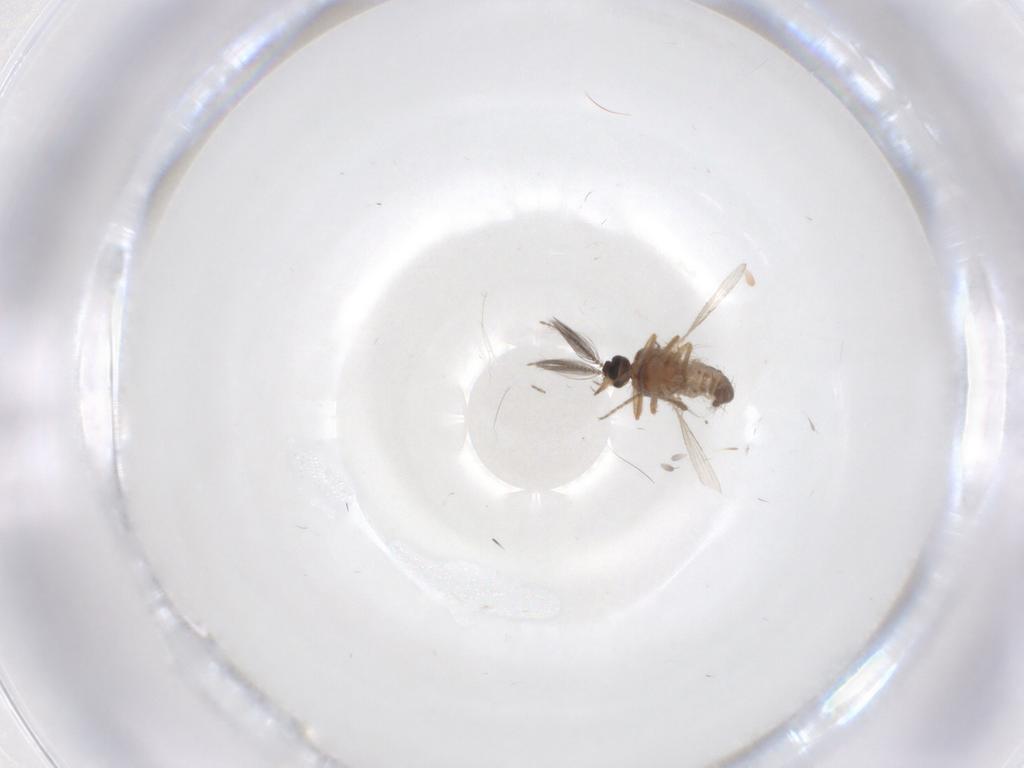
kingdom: Animalia
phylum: Arthropoda
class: Insecta
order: Diptera
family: Ceratopogonidae
